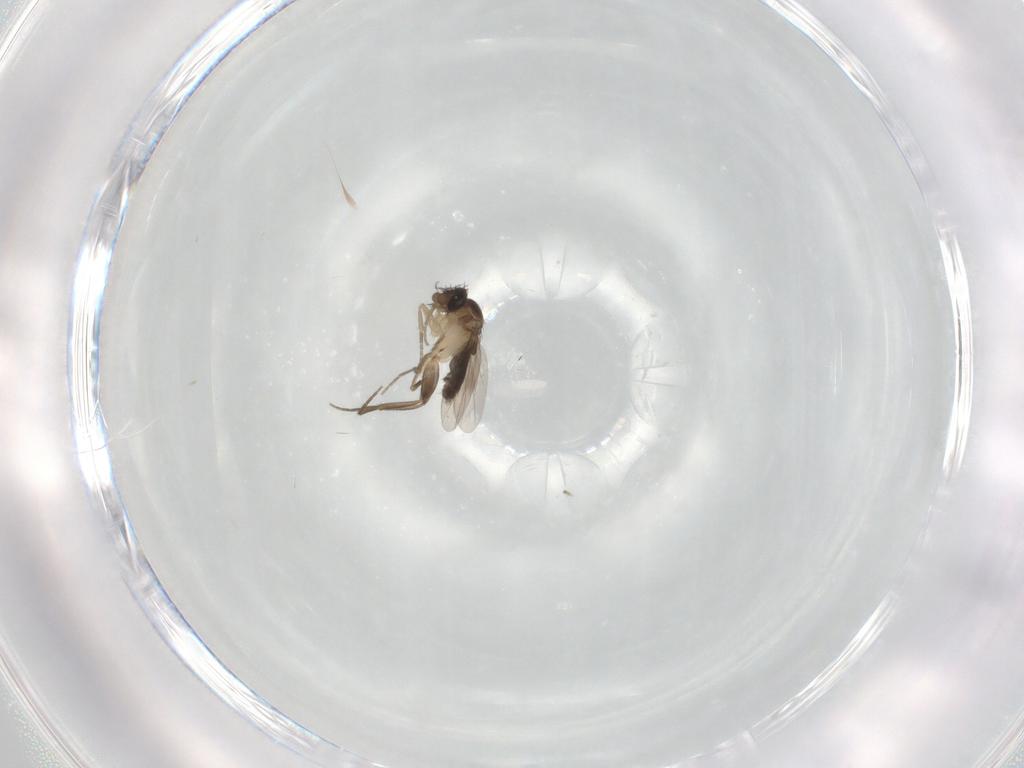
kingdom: Animalia
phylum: Arthropoda
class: Insecta
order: Diptera
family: Phoridae
